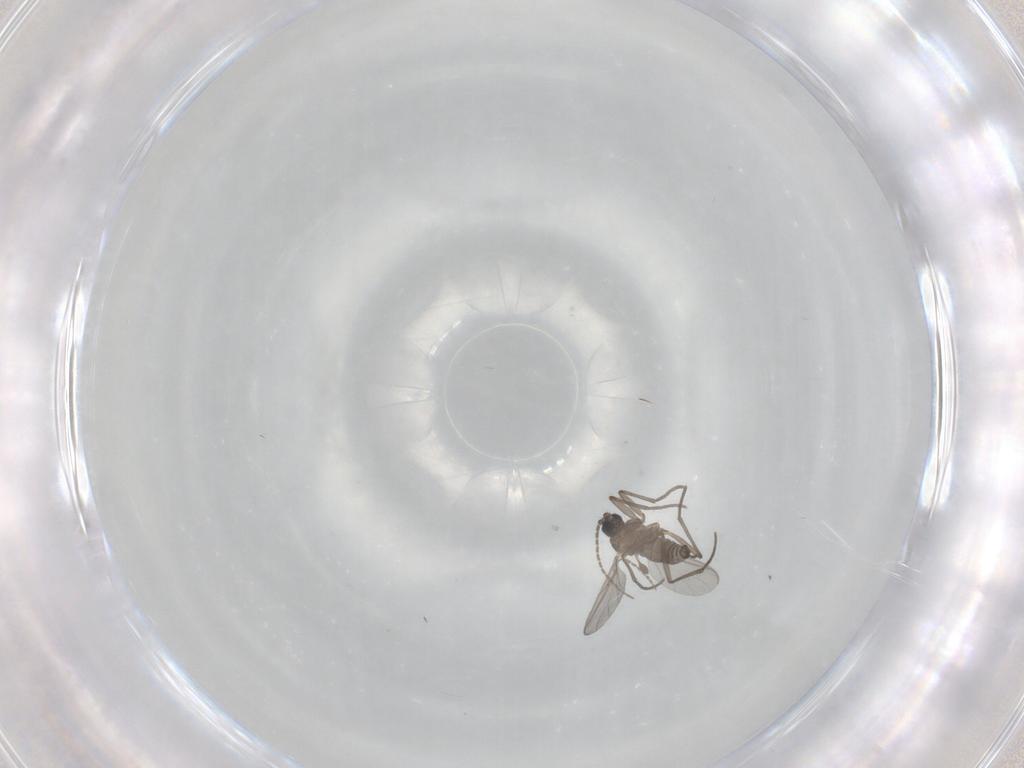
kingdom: Animalia
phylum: Arthropoda
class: Insecta
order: Diptera
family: Sciaridae
